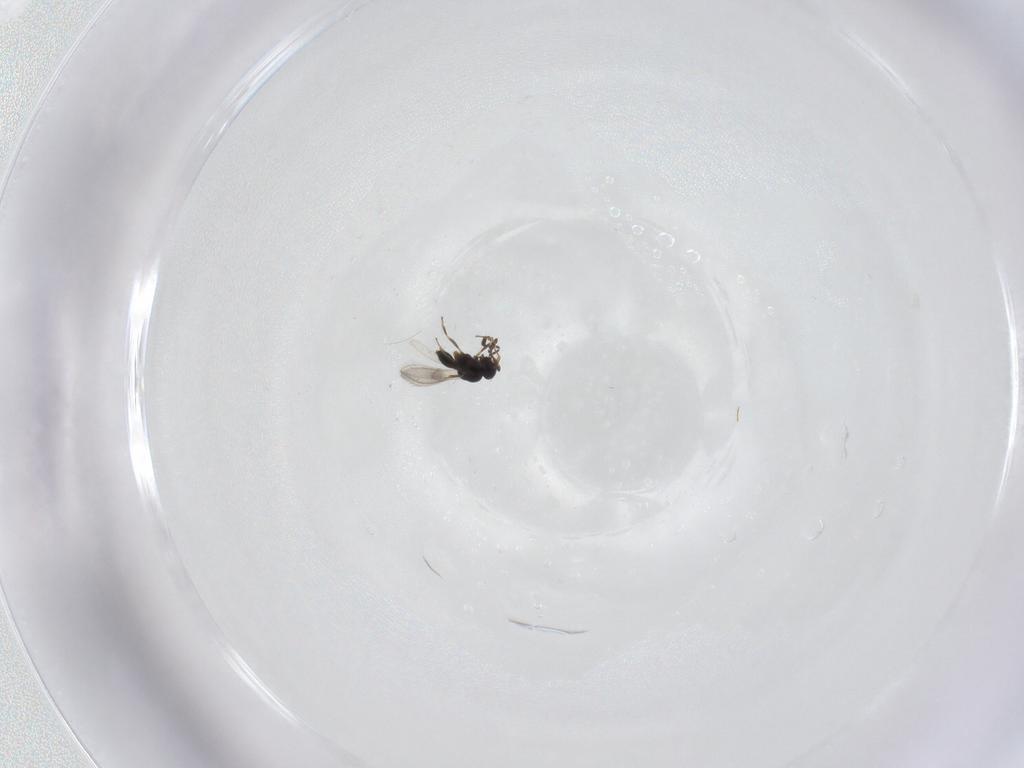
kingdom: Animalia
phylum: Arthropoda
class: Insecta
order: Hymenoptera
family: Scelionidae
